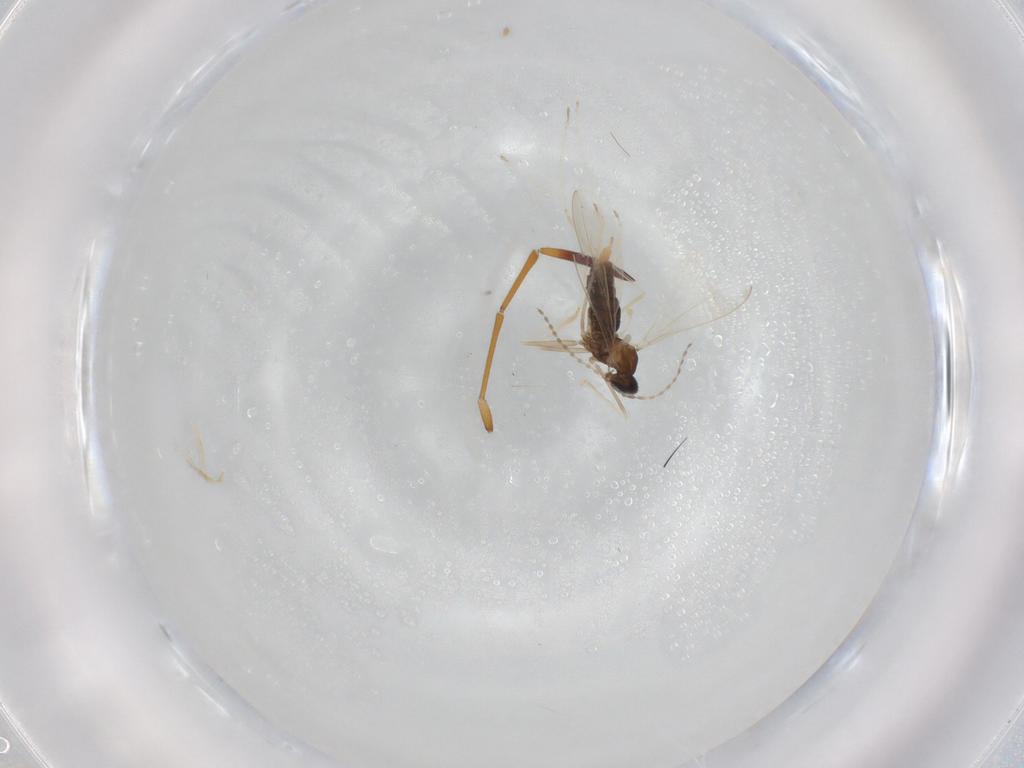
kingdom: Animalia
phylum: Arthropoda
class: Insecta
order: Diptera
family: Cecidomyiidae
